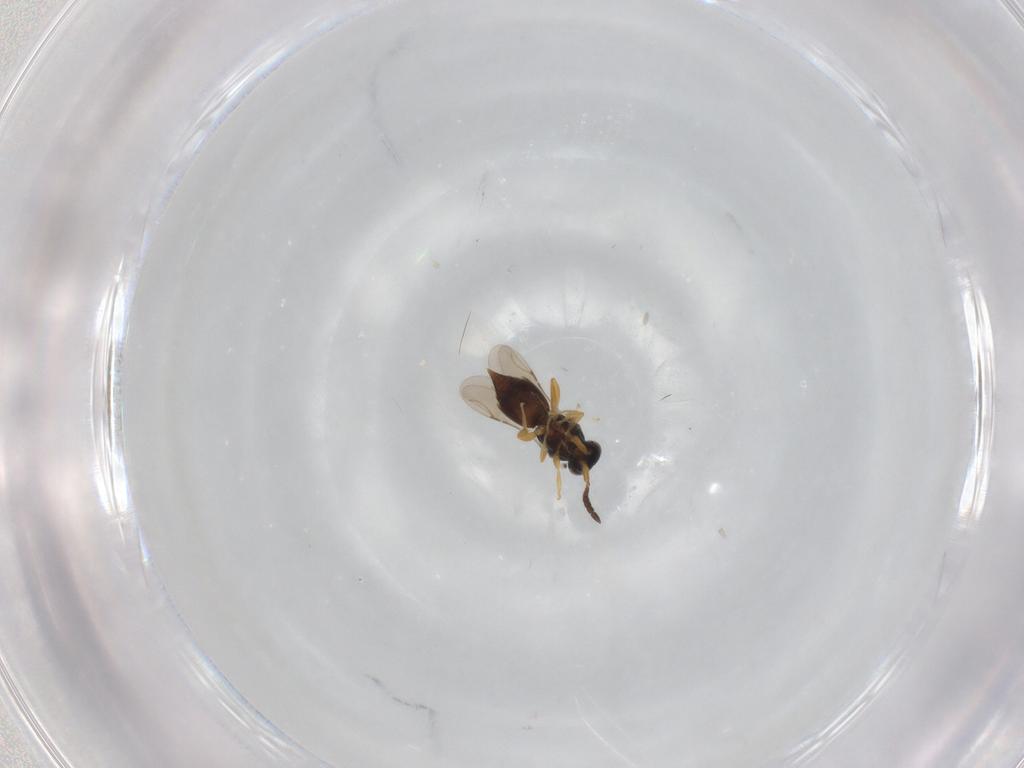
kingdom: Animalia
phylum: Arthropoda
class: Insecta
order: Hymenoptera
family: Ceraphronidae
